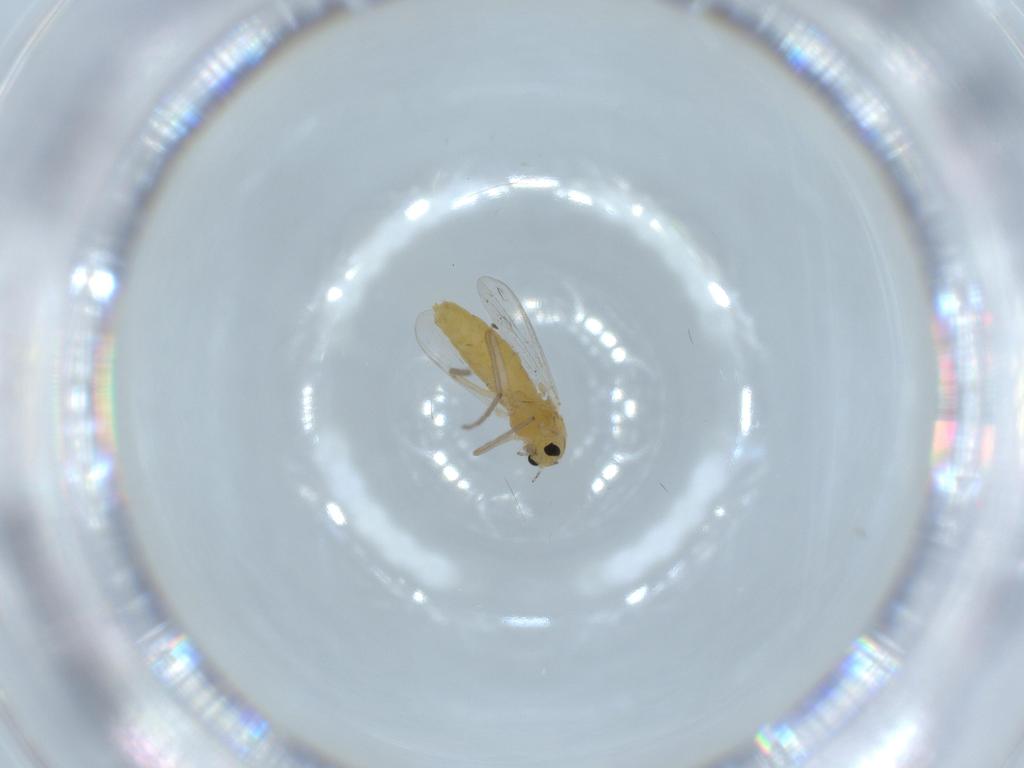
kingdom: Animalia
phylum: Arthropoda
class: Insecta
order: Diptera
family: Chironomidae
